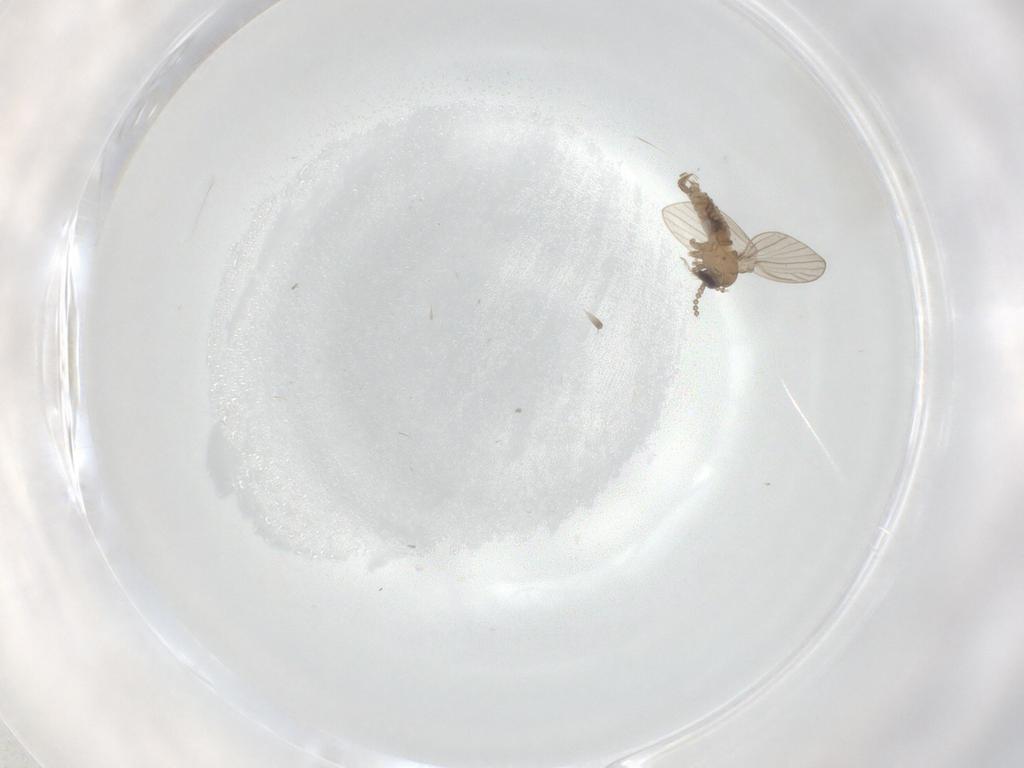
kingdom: Animalia
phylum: Arthropoda
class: Insecta
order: Diptera
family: Psychodidae
